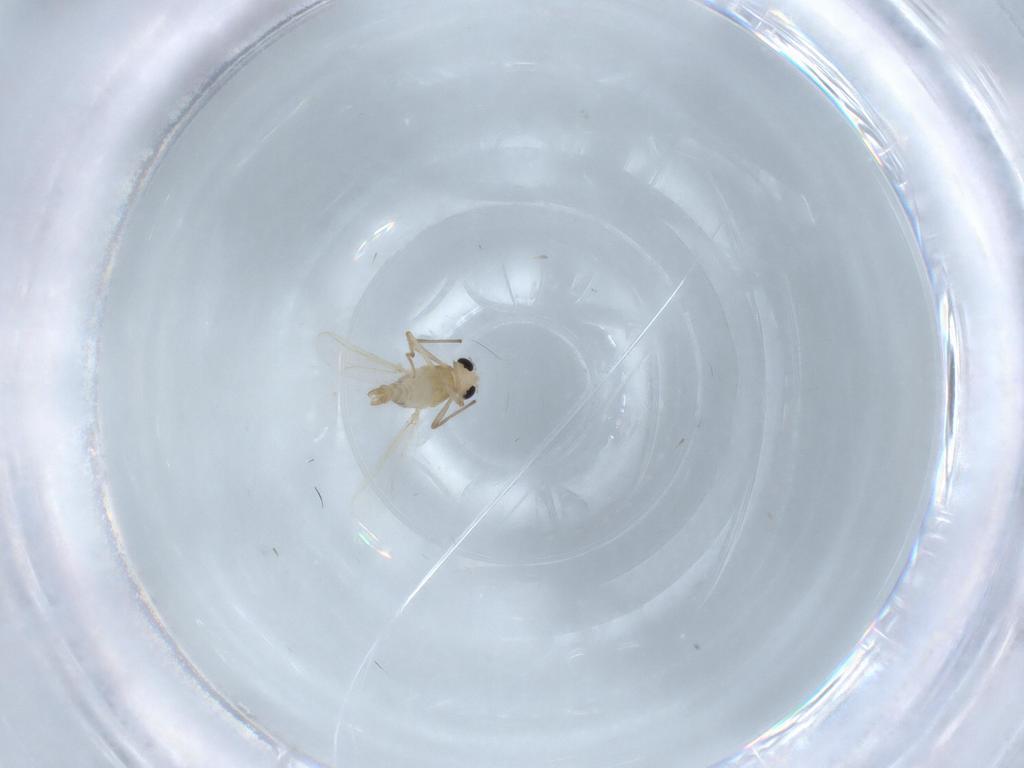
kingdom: Animalia
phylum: Arthropoda
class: Insecta
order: Diptera
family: Chironomidae
